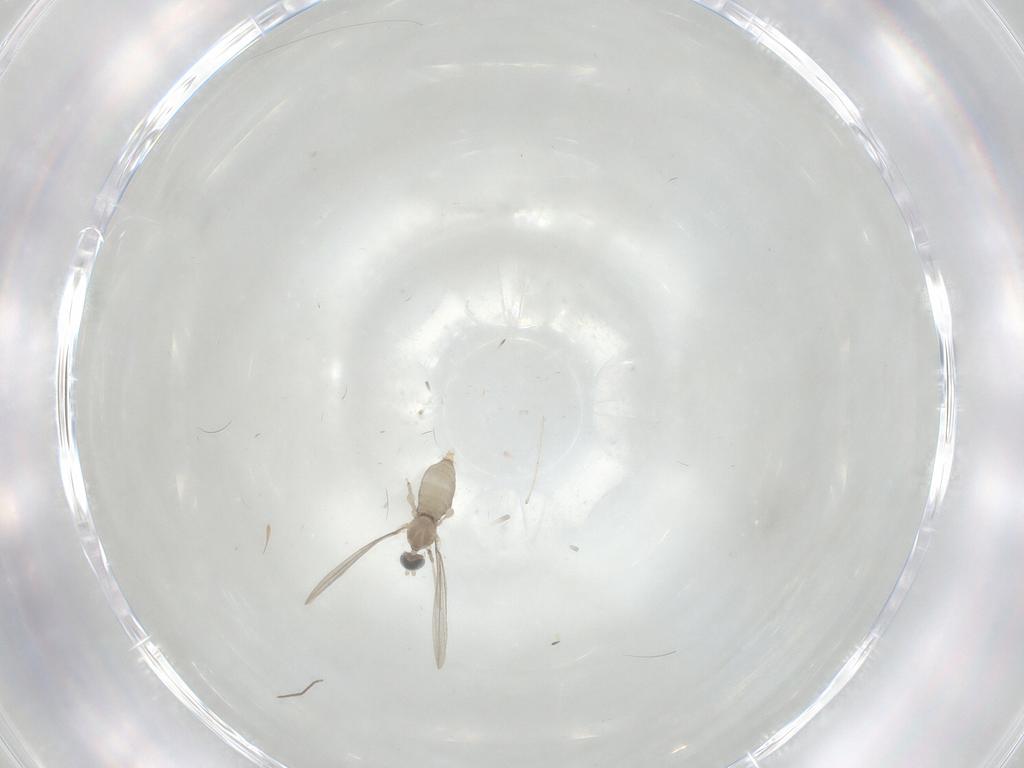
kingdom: Animalia
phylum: Arthropoda
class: Insecta
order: Diptera
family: Cecidomyiidae
